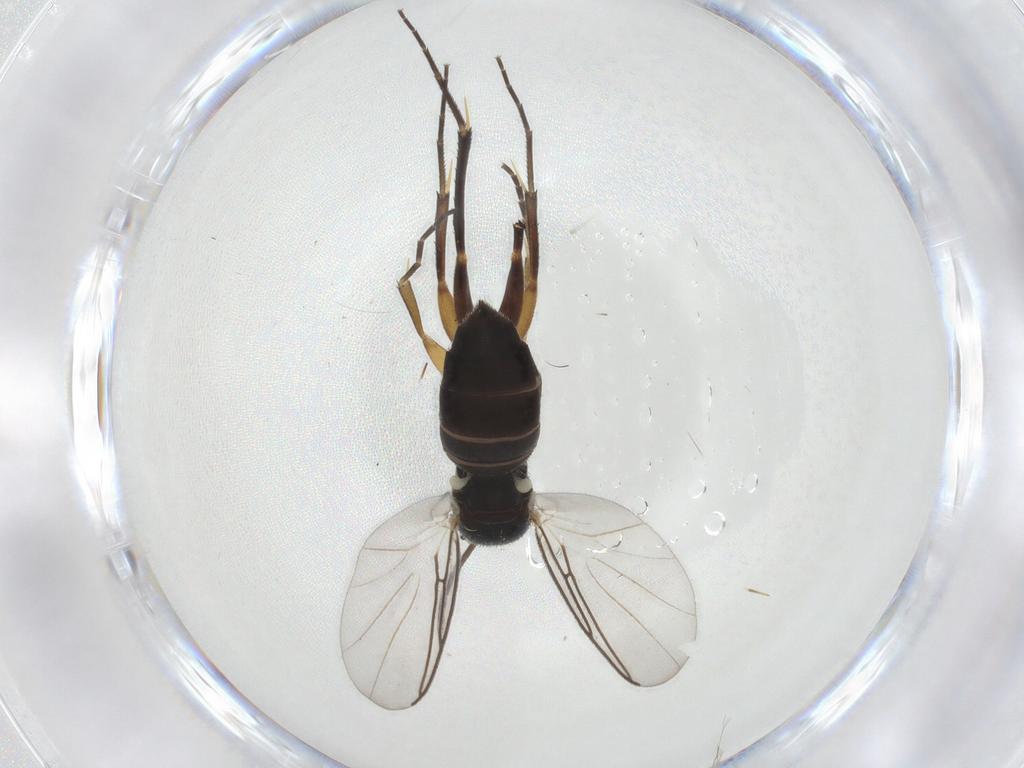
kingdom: Animalia
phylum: Arthropoda
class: Insecta
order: Diptera
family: Mycetophilidae
